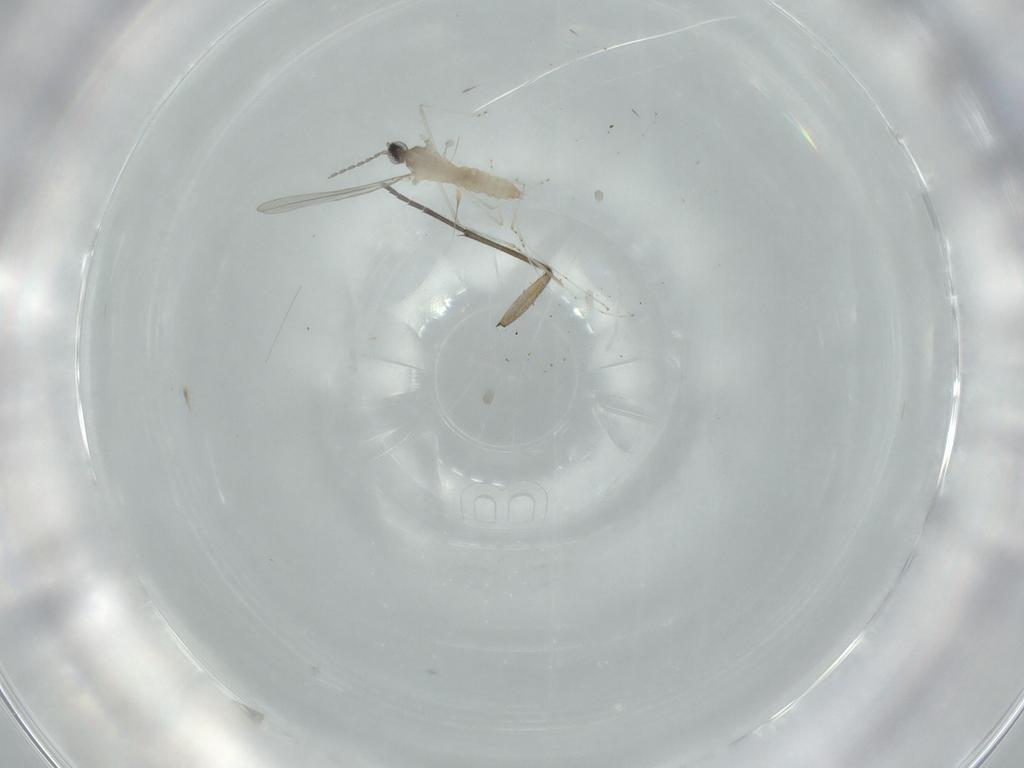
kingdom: Animalia
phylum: Arthropoda
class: Insecta
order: Diptera
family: Cecidomyiidae
